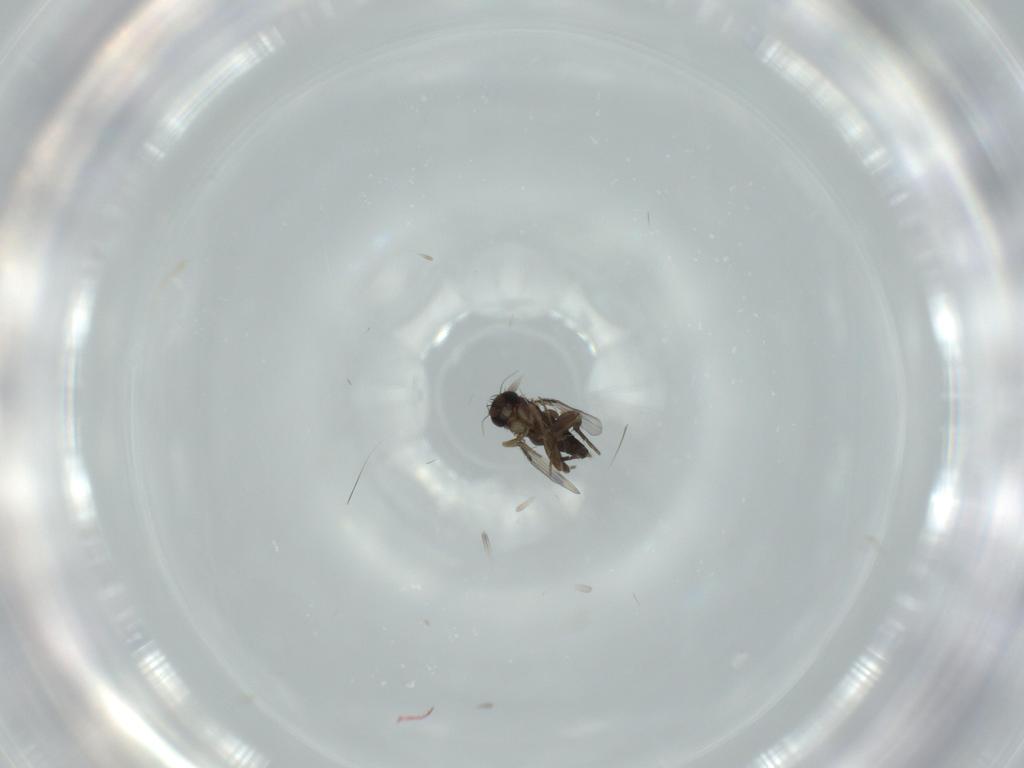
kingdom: Animalia
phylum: Arthropoda
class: Insecta
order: Diptera
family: Phoridae
